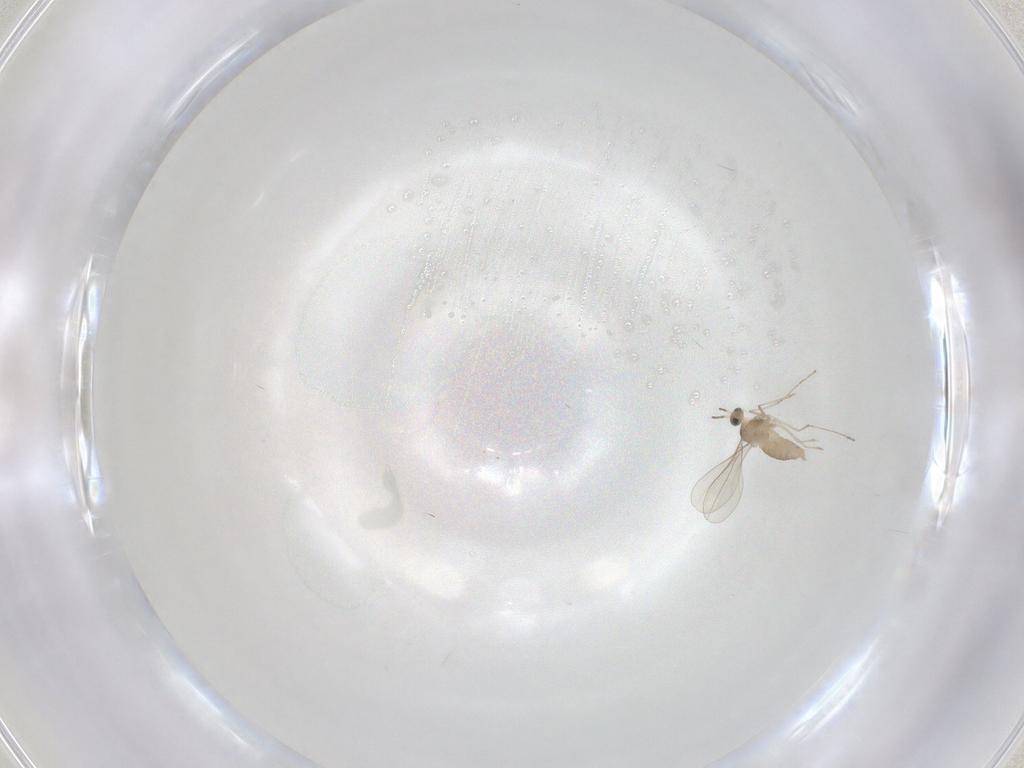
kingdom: Animalia
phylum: Arthropoda
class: Insecta
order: Diptera
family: Cecidomyiidae
